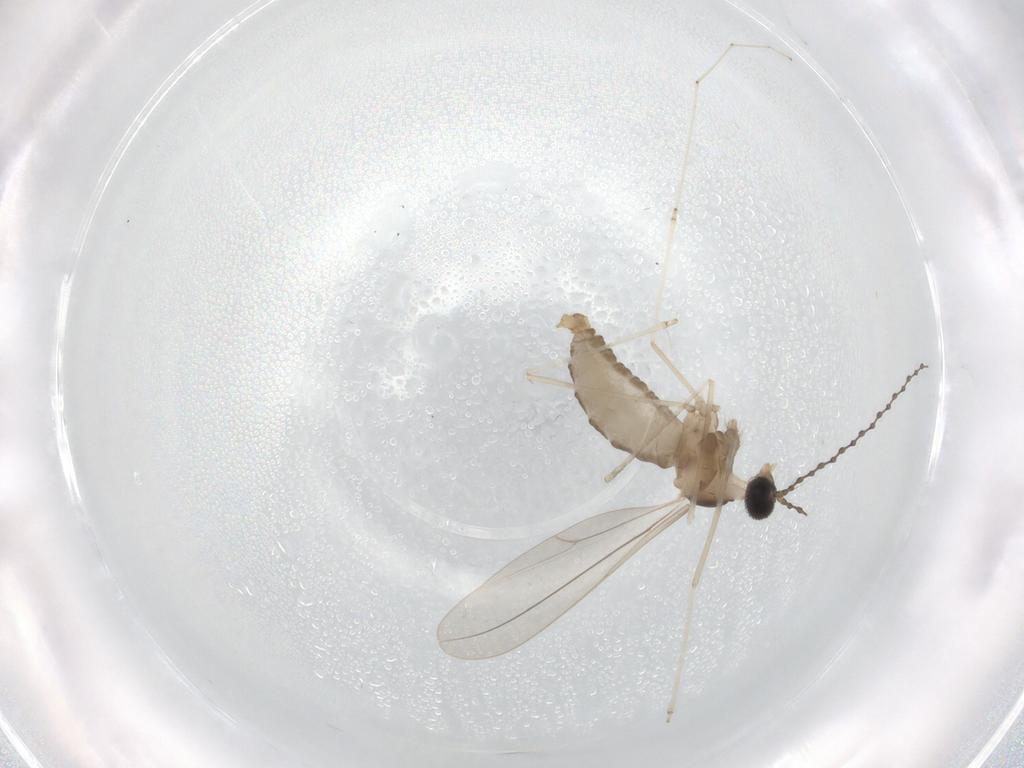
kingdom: Animalia
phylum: Arthropoda
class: Insecta
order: Diptera
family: Cecidomyiidae
